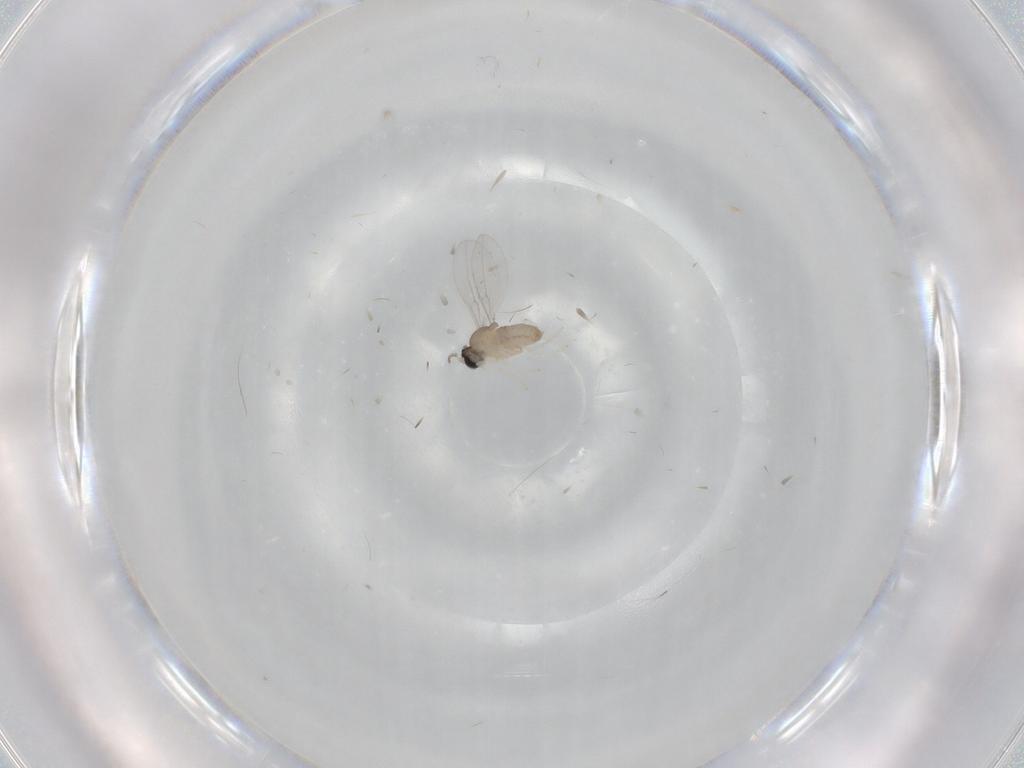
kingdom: Animalia
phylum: Arthropoda
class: Insecta
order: Diptera
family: Cecidomyiidae
